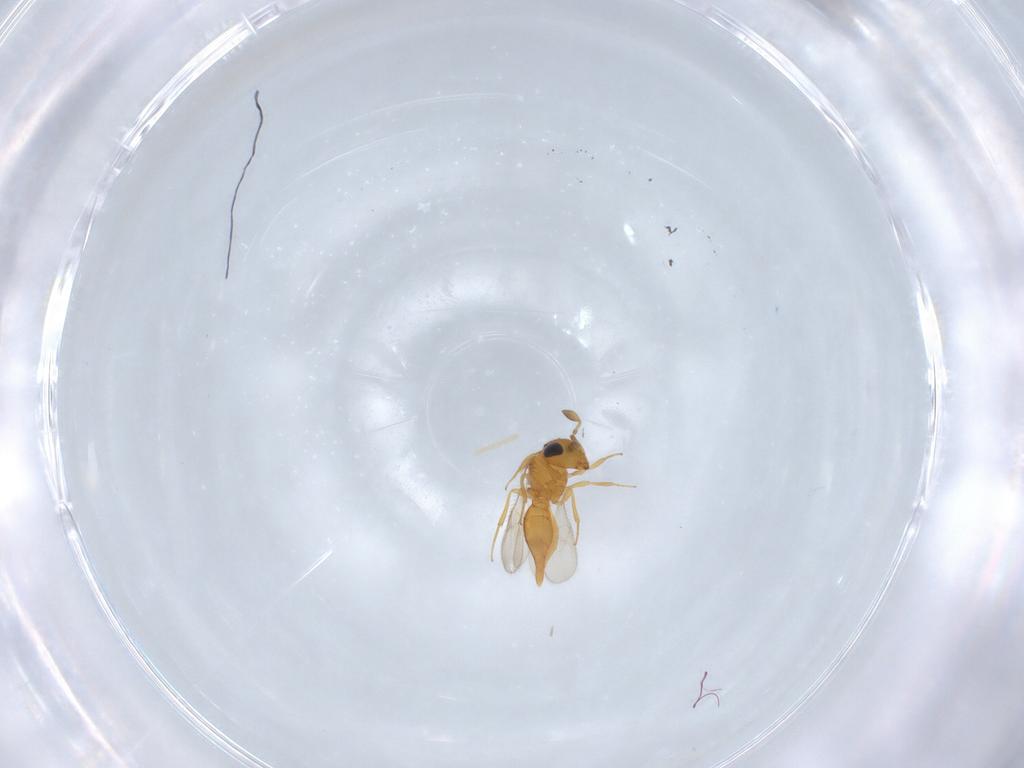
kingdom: Animalia
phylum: Arthropoda
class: Insecta
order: Hymenoptera
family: Scelionidae
